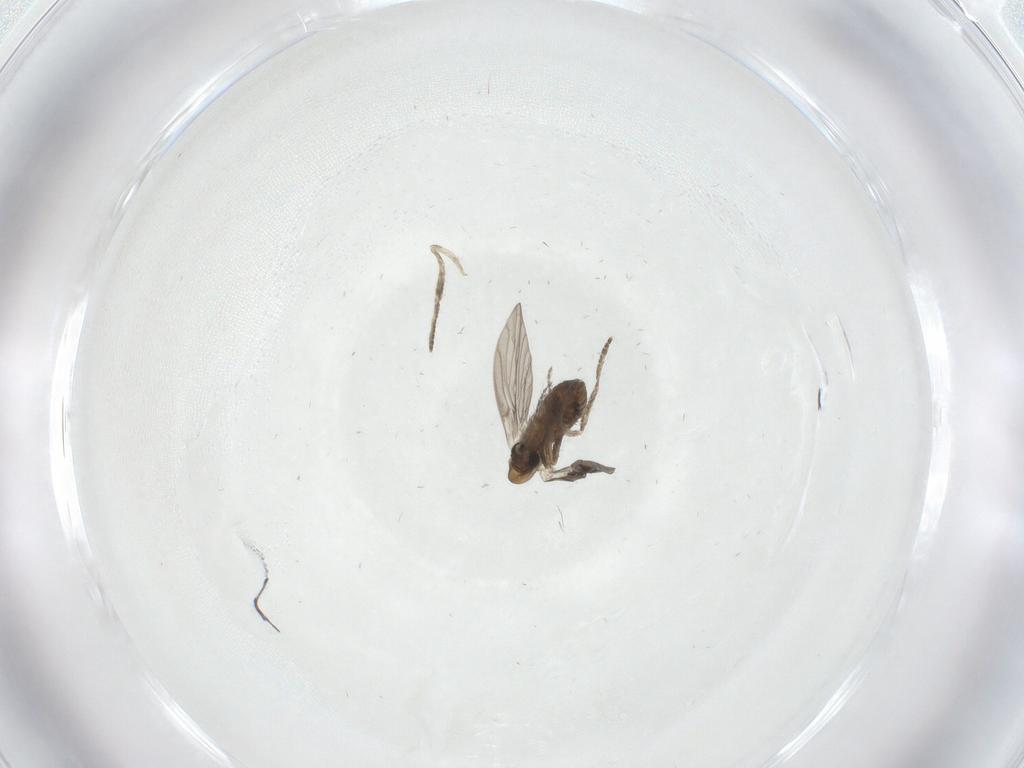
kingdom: Animalia
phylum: Arthropoda
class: Insecta
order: Diptera
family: Psychodidae
